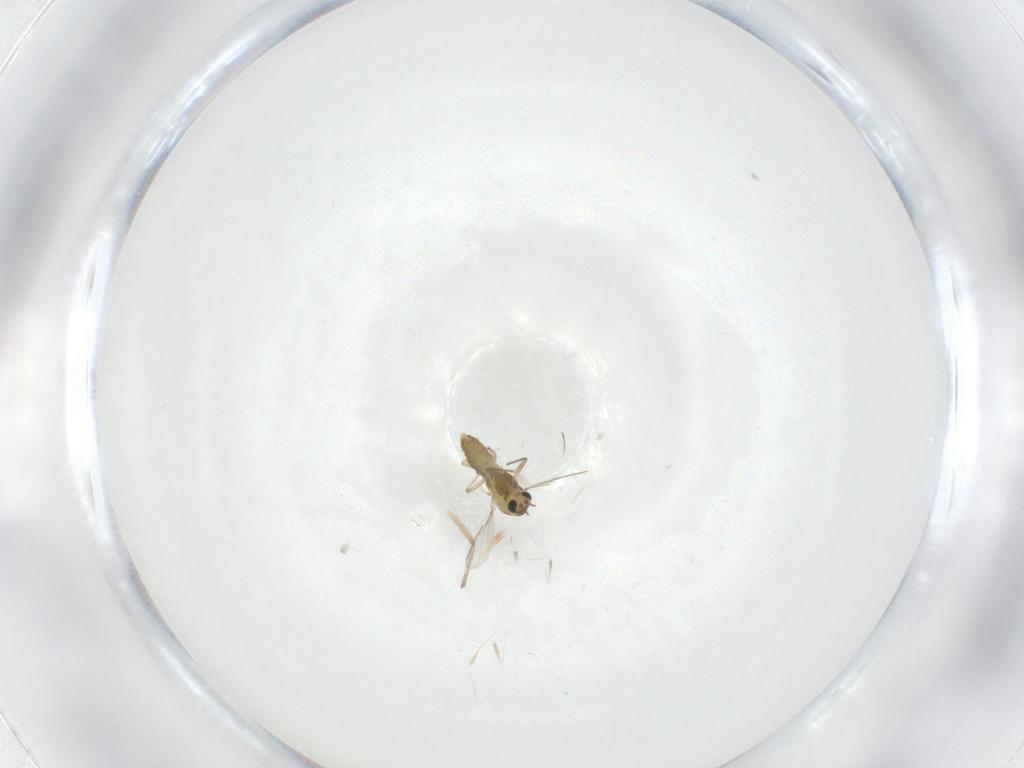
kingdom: Animalia
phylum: Arthropoda
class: Insecta
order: Diptera
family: Chironomidae
